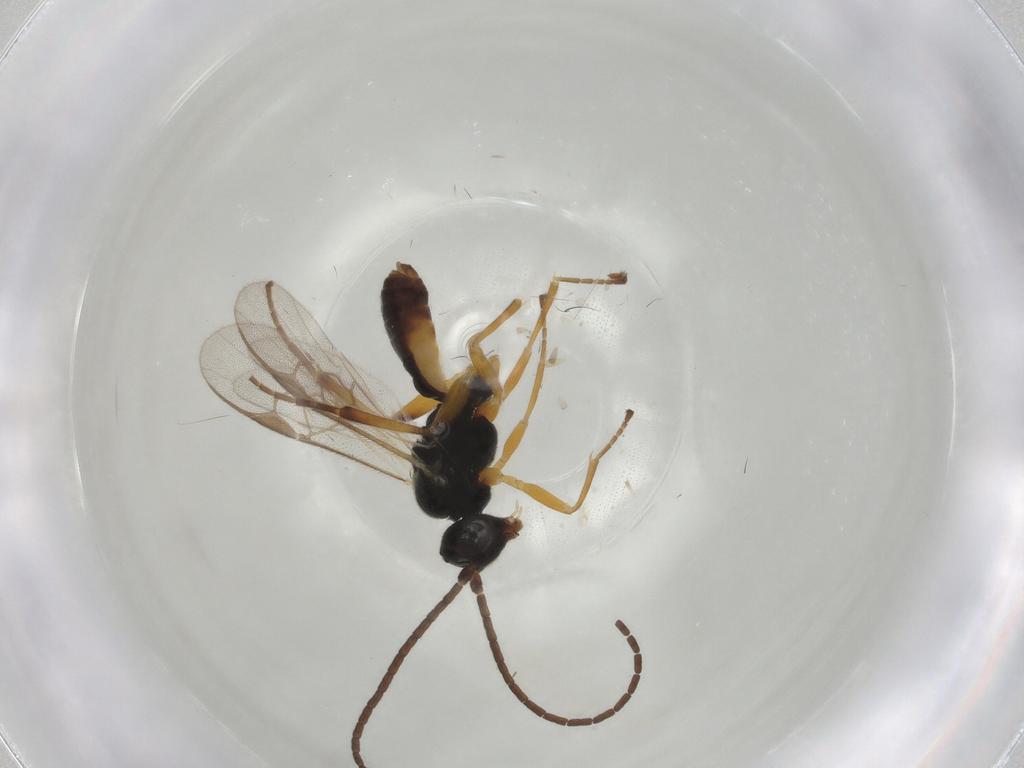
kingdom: Animalia
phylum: Arthropoda
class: Insecta
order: Hymenoptera
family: Braconidae
